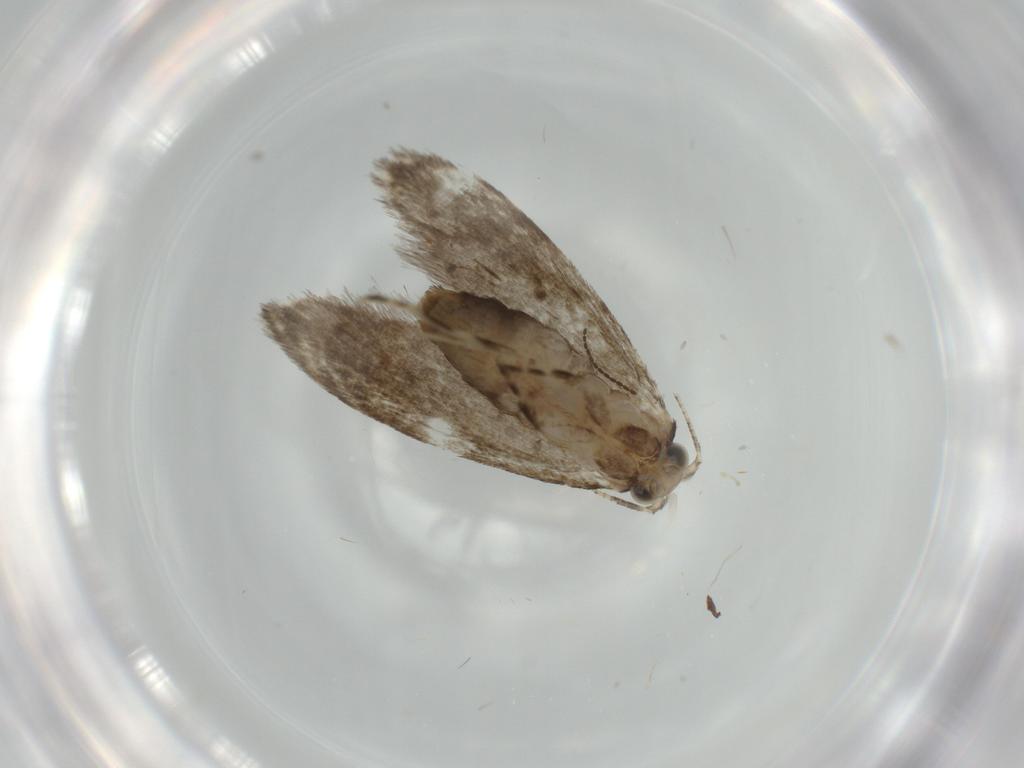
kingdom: Animalia
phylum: Arthropoda
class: Insecta
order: Lepidoptera
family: Tineidae
